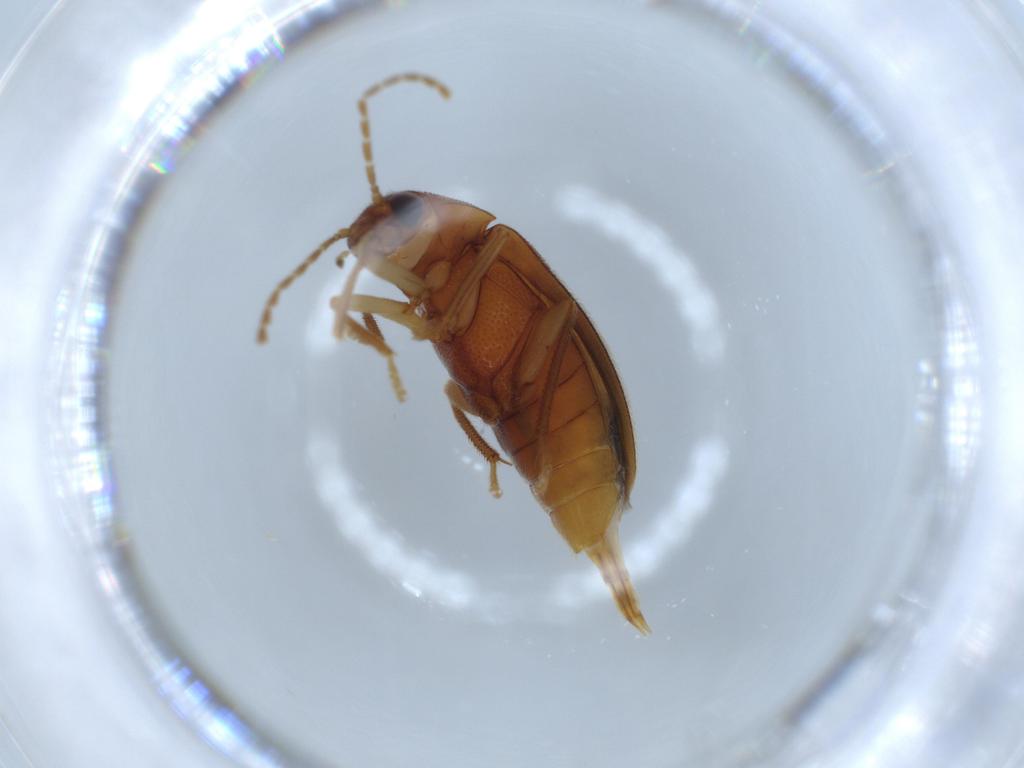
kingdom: Animalia
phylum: Arthropoda
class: Insecta
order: Coleoptera
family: Ptilodactylidae
